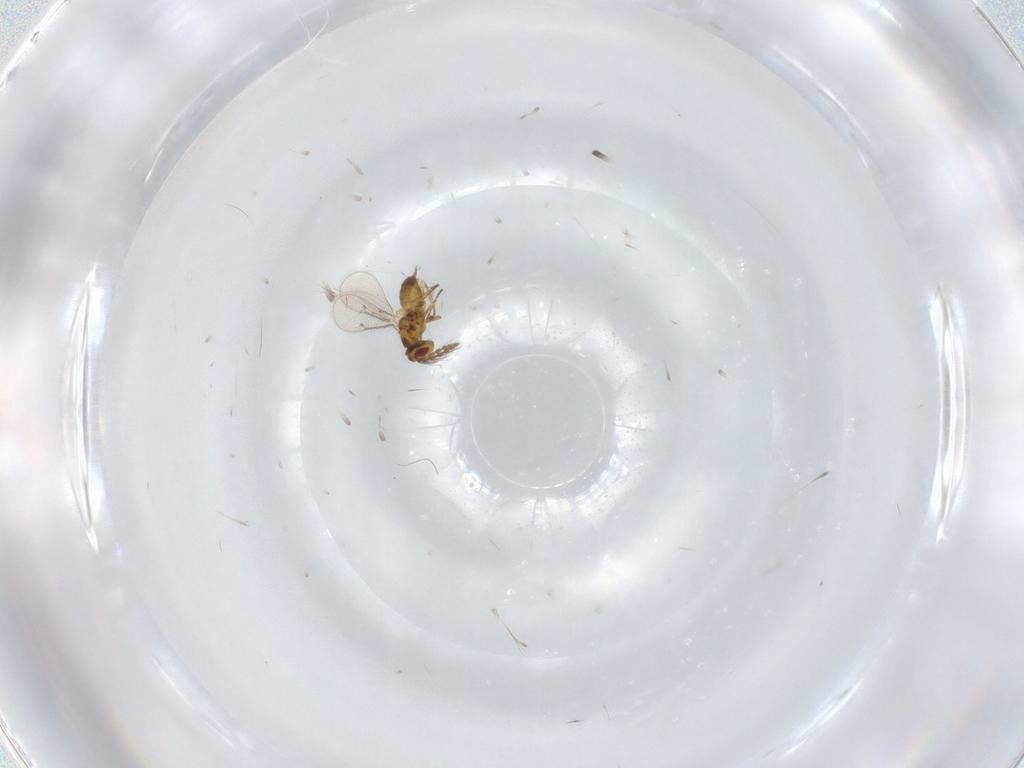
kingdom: Animalia
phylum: Arthropoda
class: Insecta
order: Hymenoptera
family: Eulophidae
